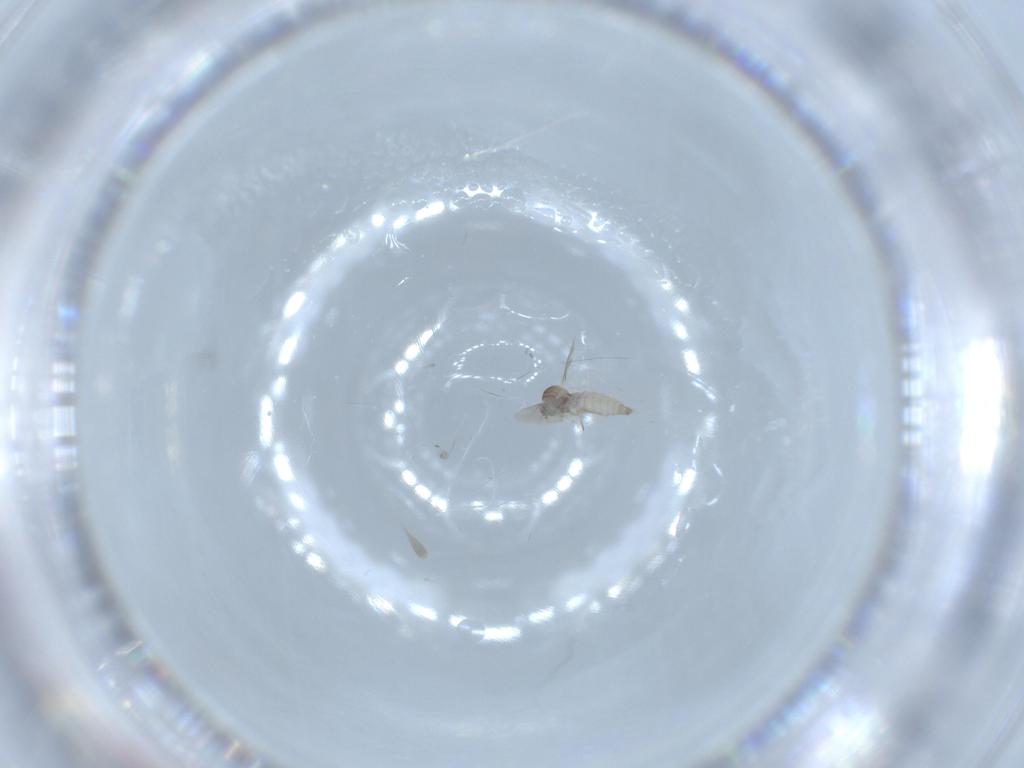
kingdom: Animalia
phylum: Arthropoda
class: Insecta
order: Diptera
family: Cecidomyiidae
